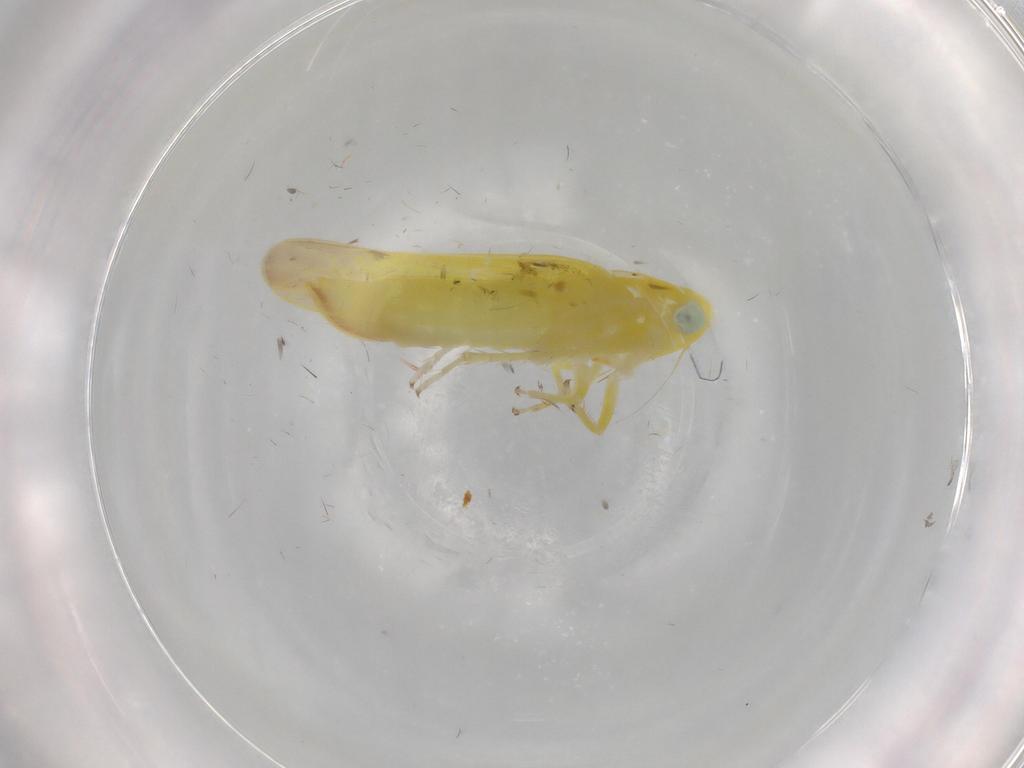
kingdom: Animalia
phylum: Arthropoda
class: Insecta
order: Hemiptera
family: Cicadellidae
